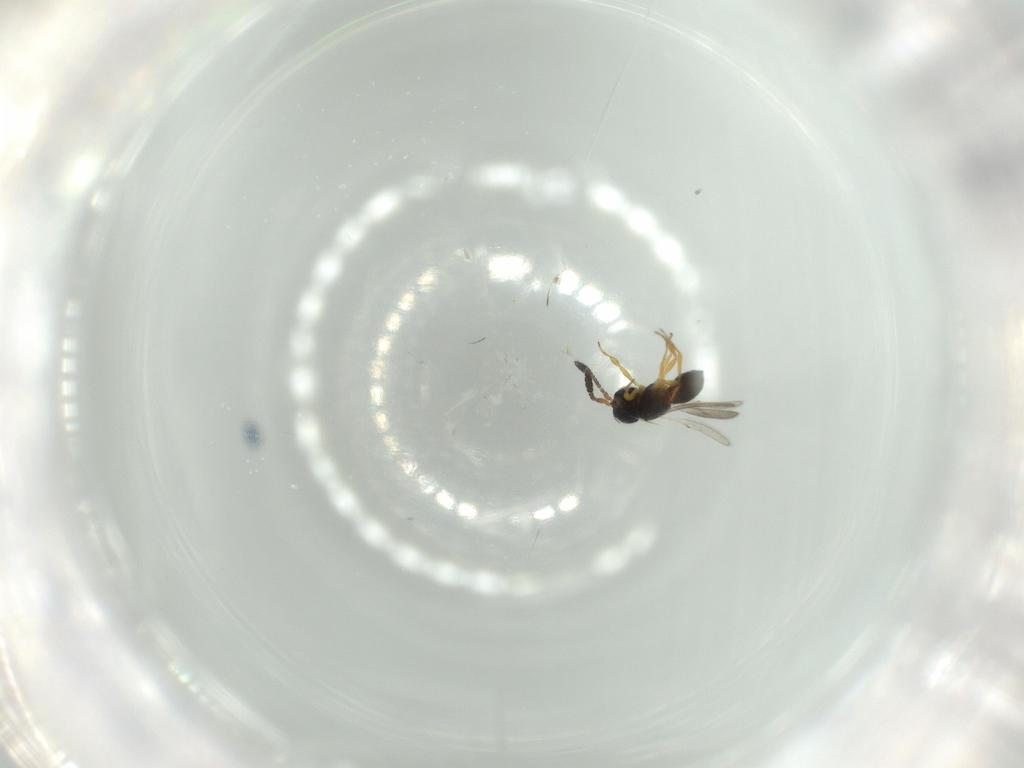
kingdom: Animalia
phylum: Arthropoda
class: Insecta
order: Hymenoptera
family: Scelionidae
